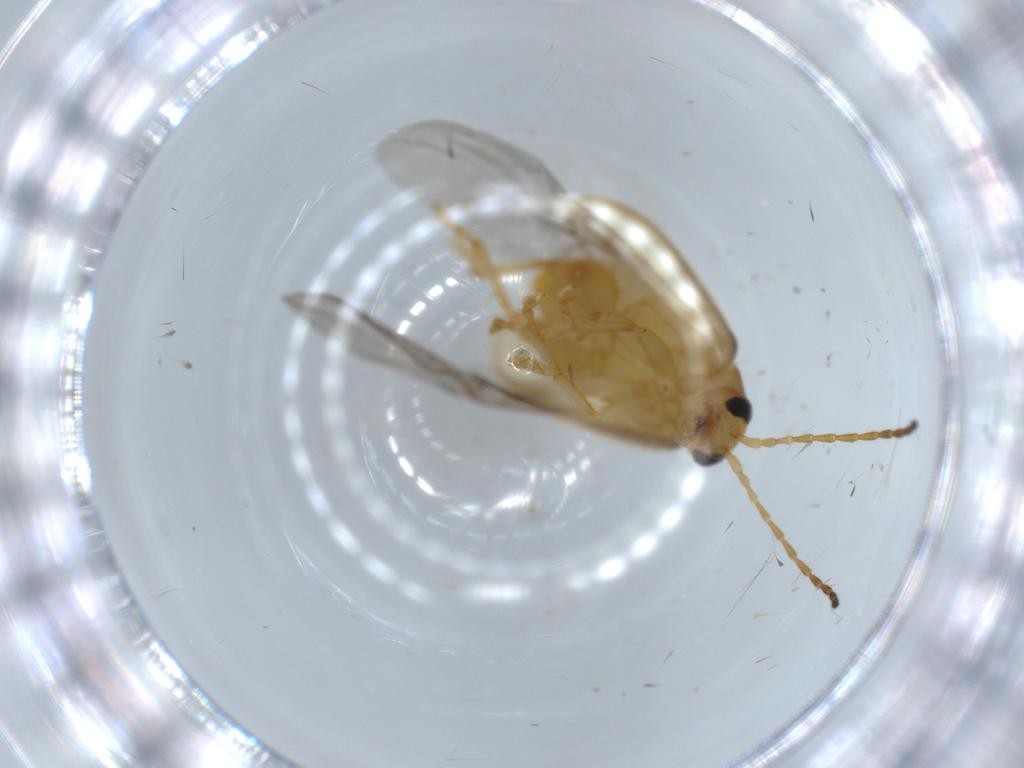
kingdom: Animalia
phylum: Arthropoda
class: Insecta
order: Coleoptera
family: Chrysomelidae
